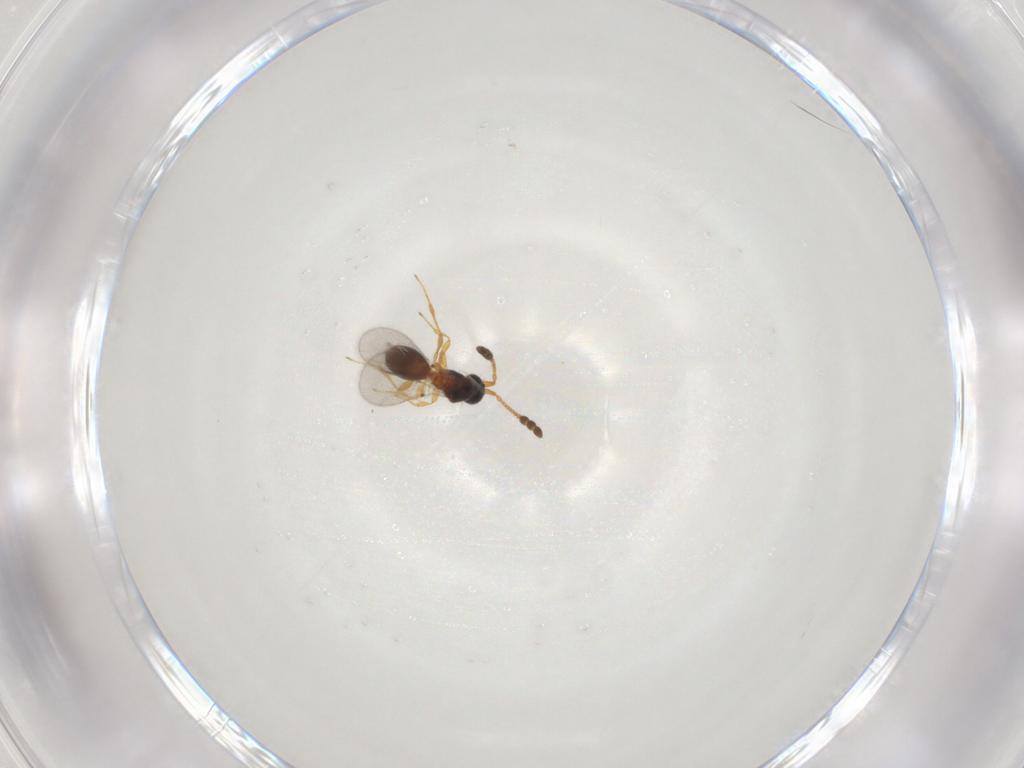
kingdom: Animalia
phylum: Arthropoda
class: Insecta
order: Hymenoptera
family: Diapriidae
